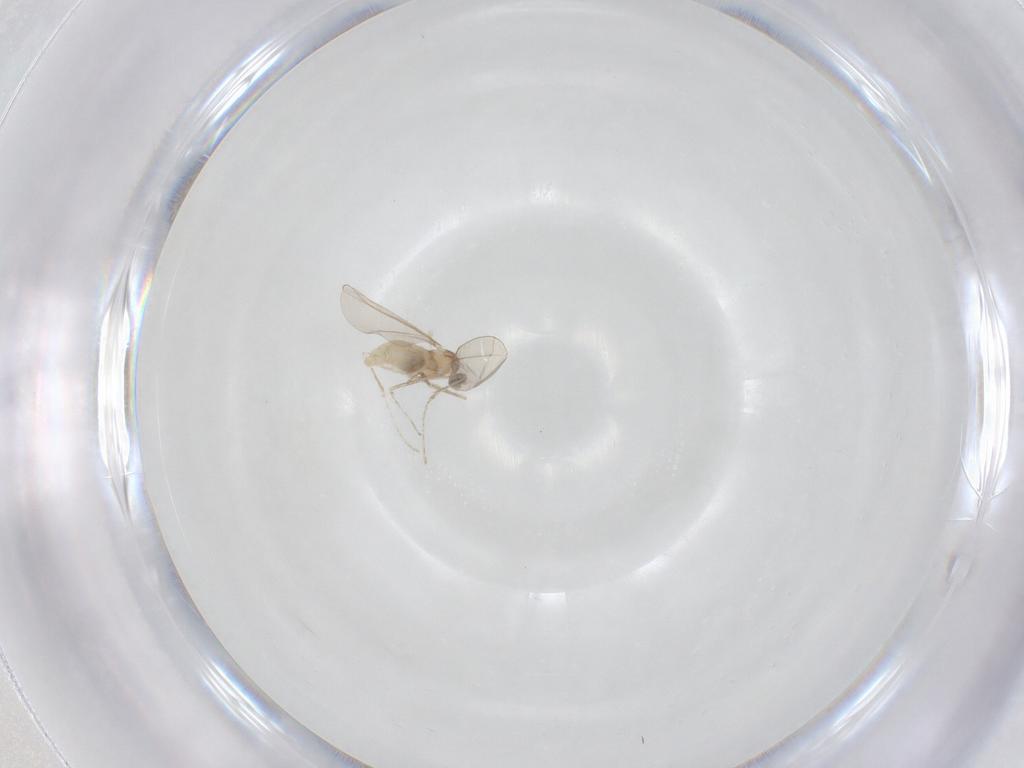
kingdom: Animalia
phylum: Arthropoda
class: Insecta
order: Diptera
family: Cecidomyiidae
